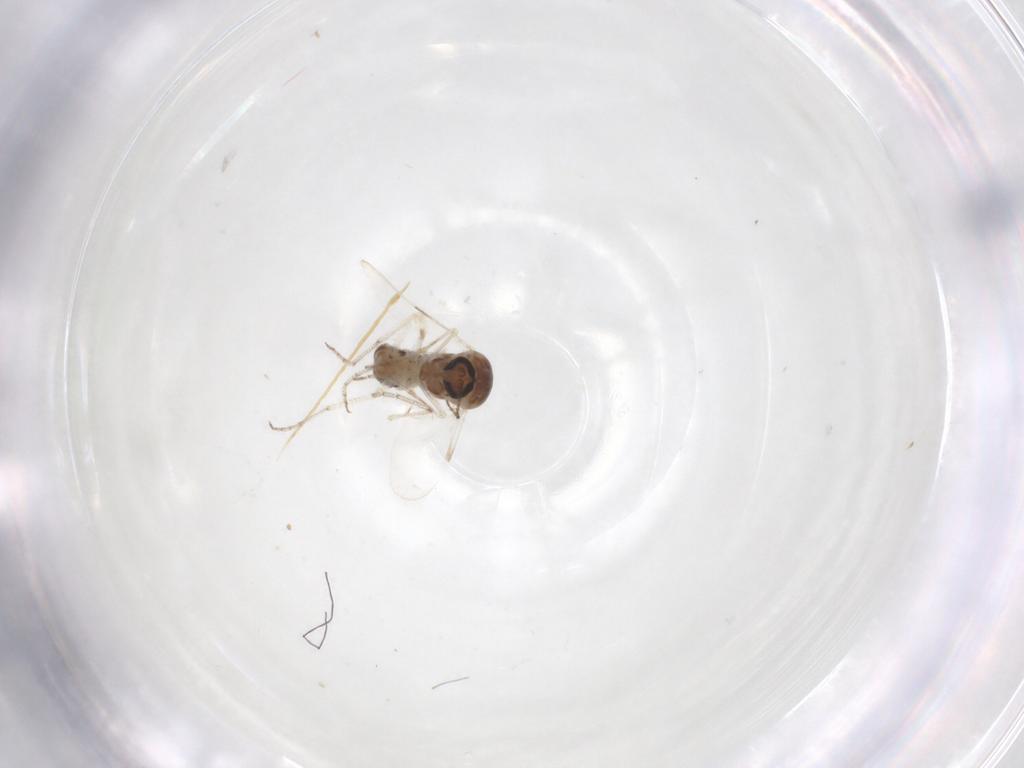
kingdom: Animalia
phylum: Arthropoda
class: Insecta
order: Diptera
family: Ceratopogonidae
